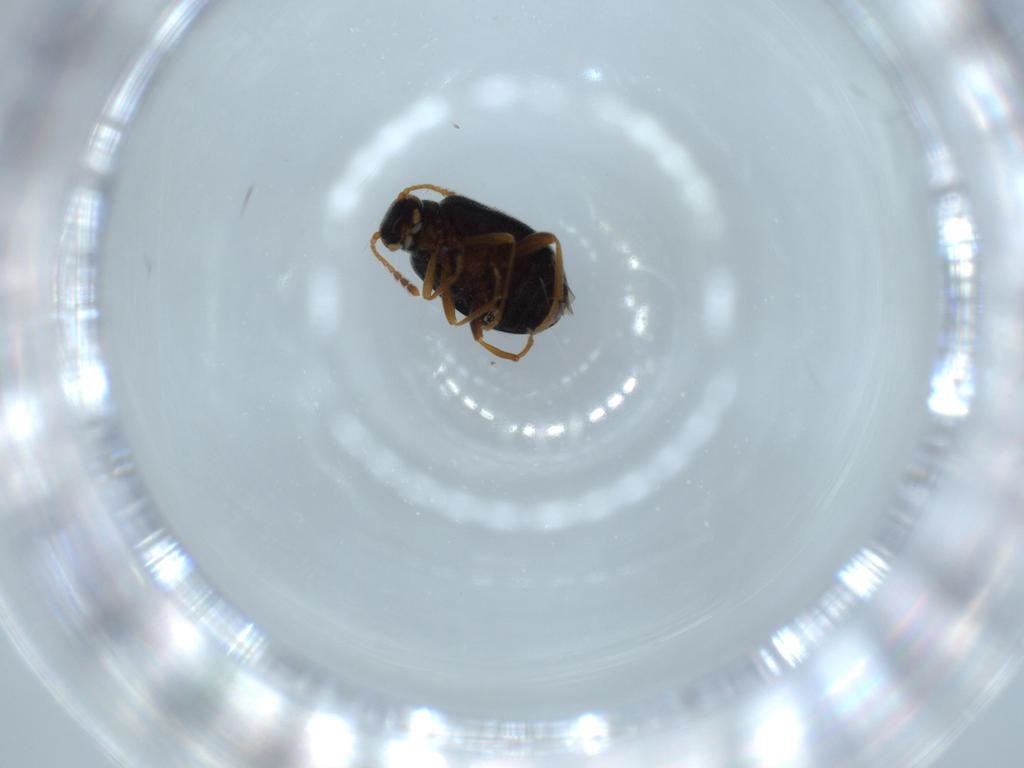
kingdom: Animalia
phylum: Arthropoda
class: Insecta
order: Coleoptera
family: Aderidae
